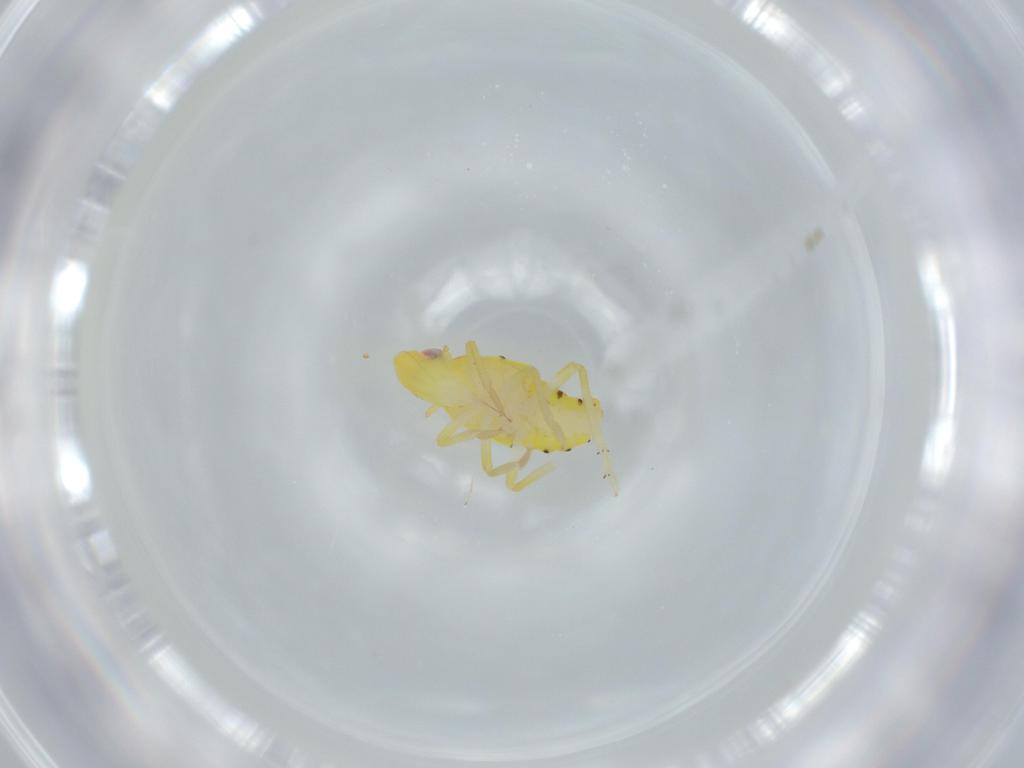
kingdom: Animalia
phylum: Arthropoda
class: Insecta
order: Hemiptera
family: Tropiduchidae
